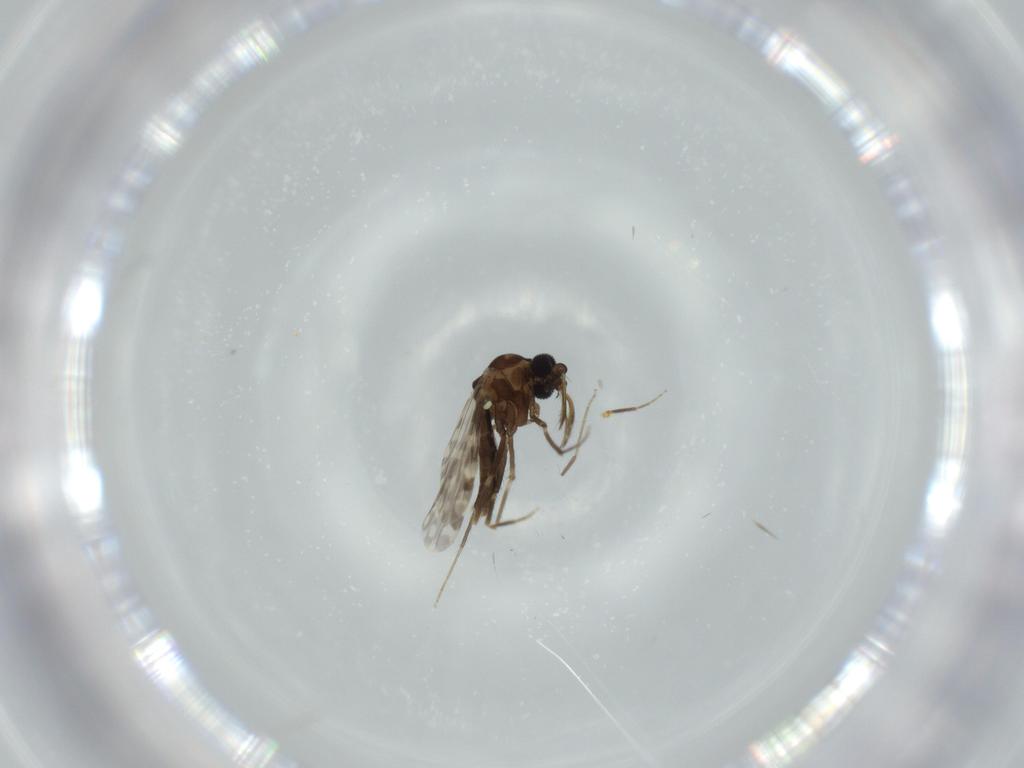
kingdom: Animalia
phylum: Arthropoda
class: Insecta
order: Diptera
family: Ceratopogonidae
